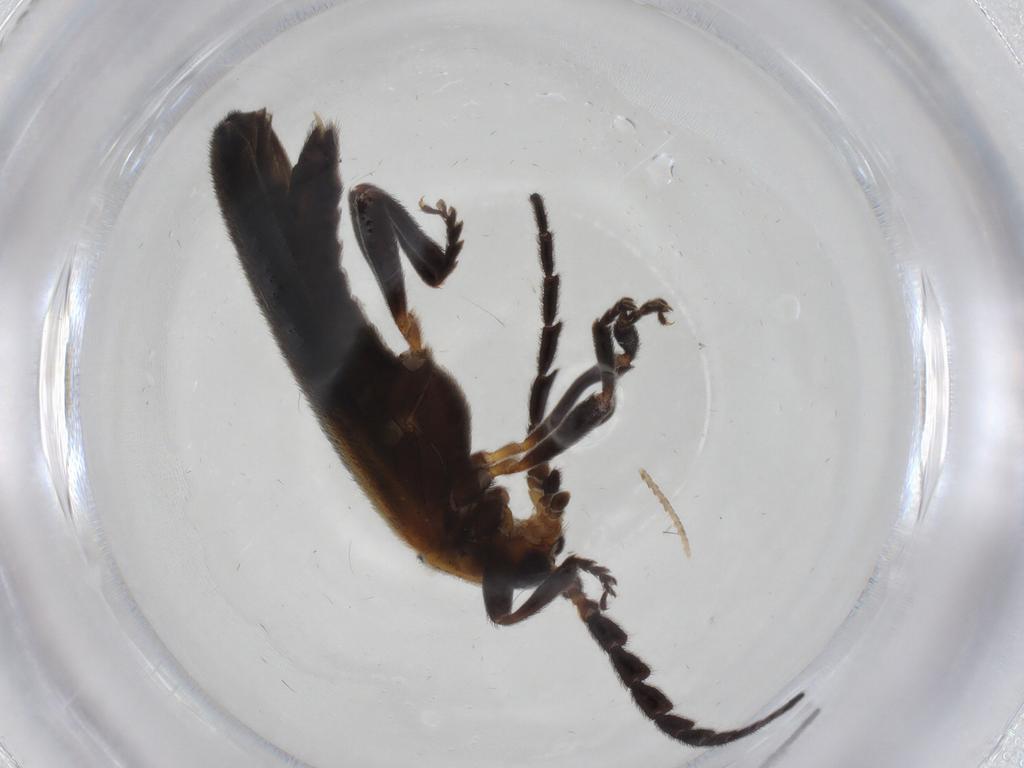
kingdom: Animalia
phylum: Arthropoda
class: Insecta
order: Coleoptera
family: Lycidae
